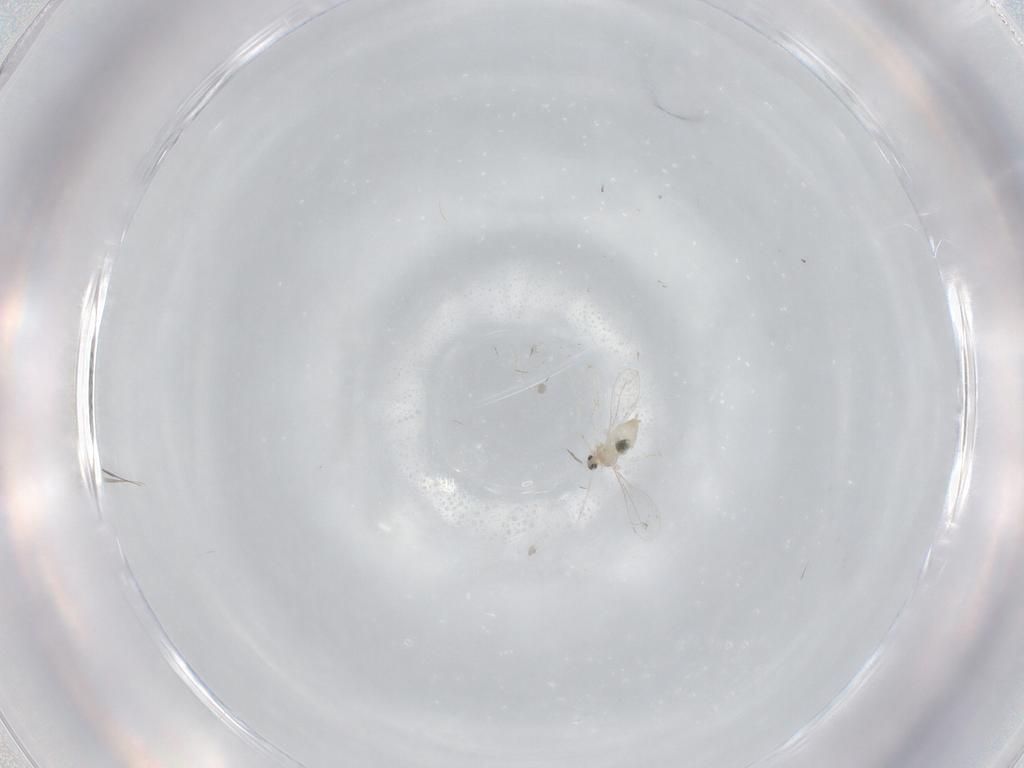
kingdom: Animalia
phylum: Arthropoda
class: Insecta
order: Diptera
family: Cecidomyiidae
